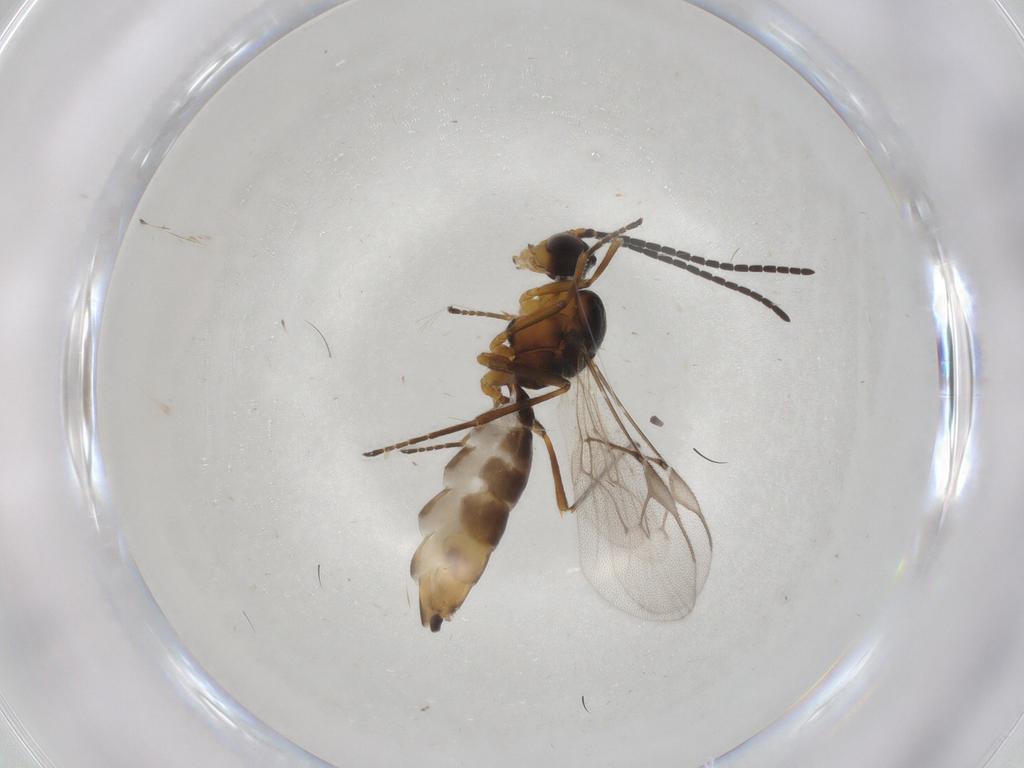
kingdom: Animalia
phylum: Arthropoda
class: Insecta
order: Hymenoptera
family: Braconidae
